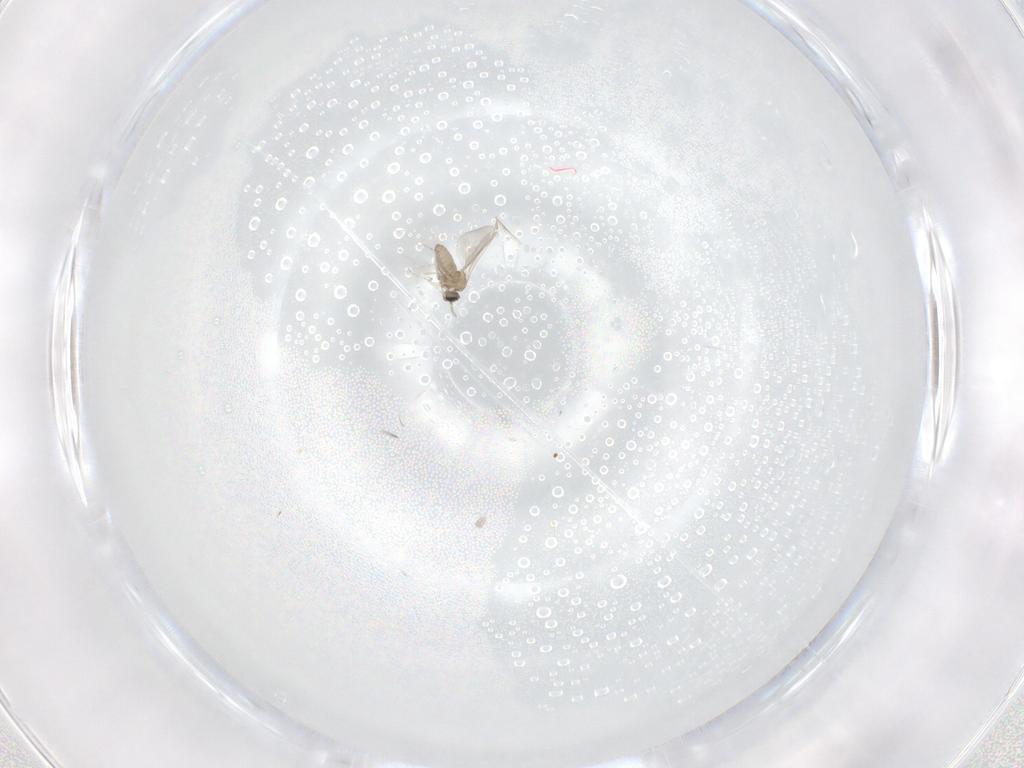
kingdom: Animalia
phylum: Arthropoda
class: Insecta
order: Diptera
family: Cecidomyiidae
